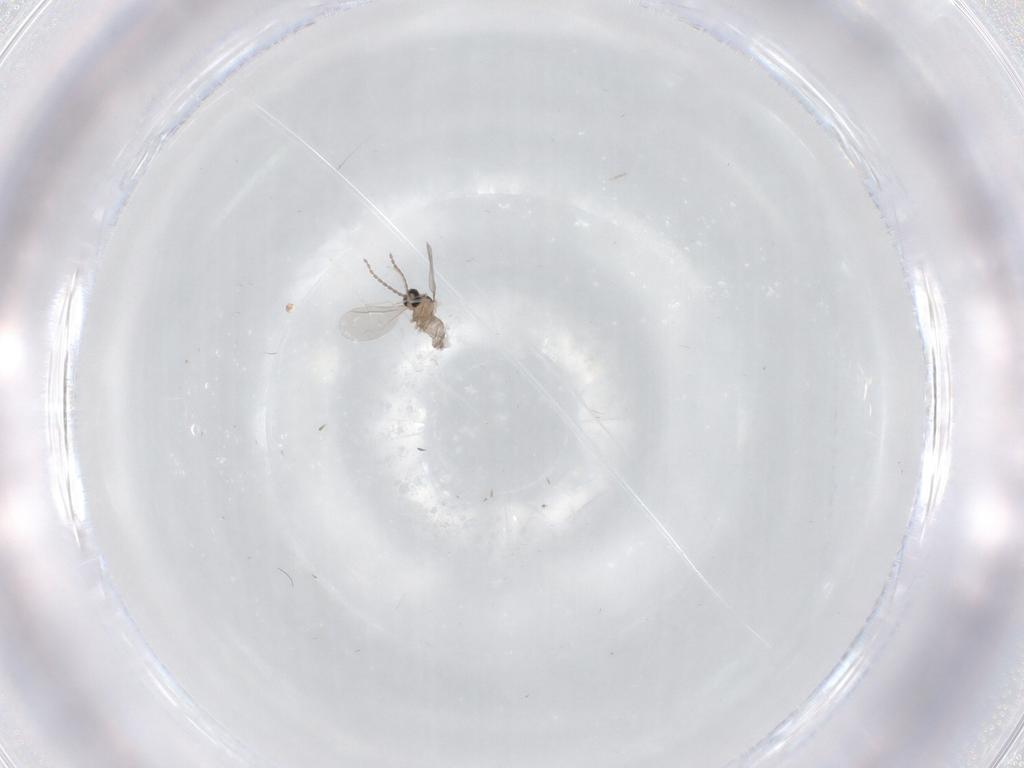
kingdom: Animalia
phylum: Arthropoda
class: Insecta
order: Diptera
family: Cecidomyiidae
